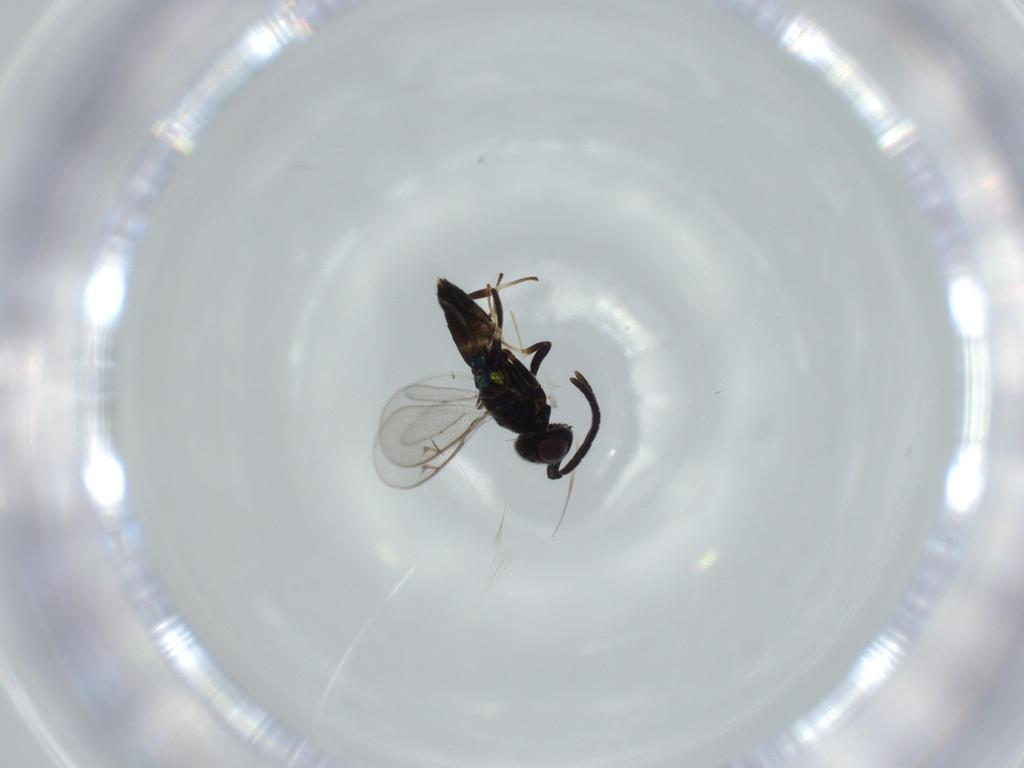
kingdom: Animalia
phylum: Arthropoda
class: Insecta
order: Hymenoptera
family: Eupelmidae
